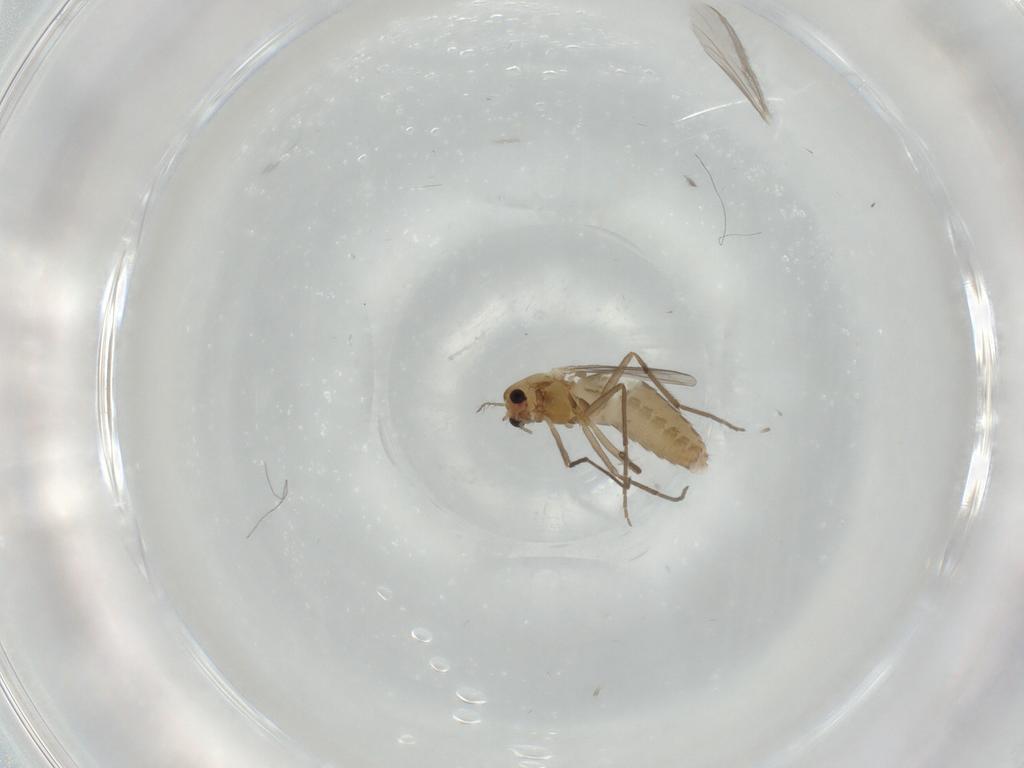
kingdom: Animalia
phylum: Arthropoda
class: Insecta
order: Diptera
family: Chironomidae
